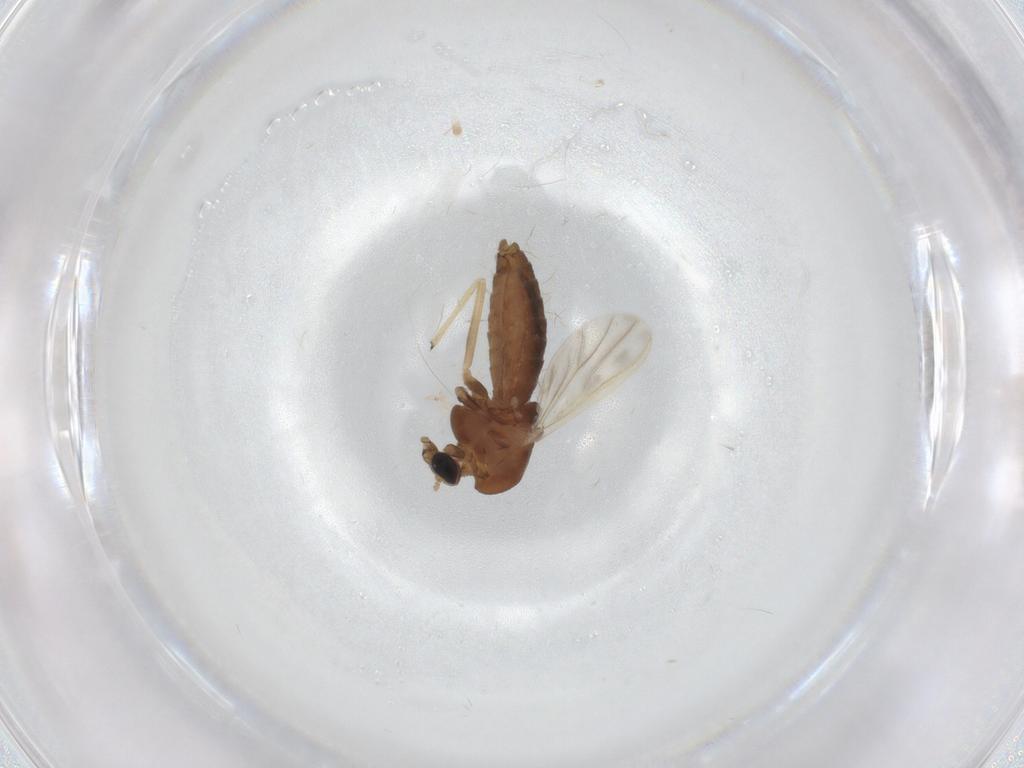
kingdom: Animalia
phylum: Arthropoda
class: Insecta
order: Diptera
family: Chironomidae
